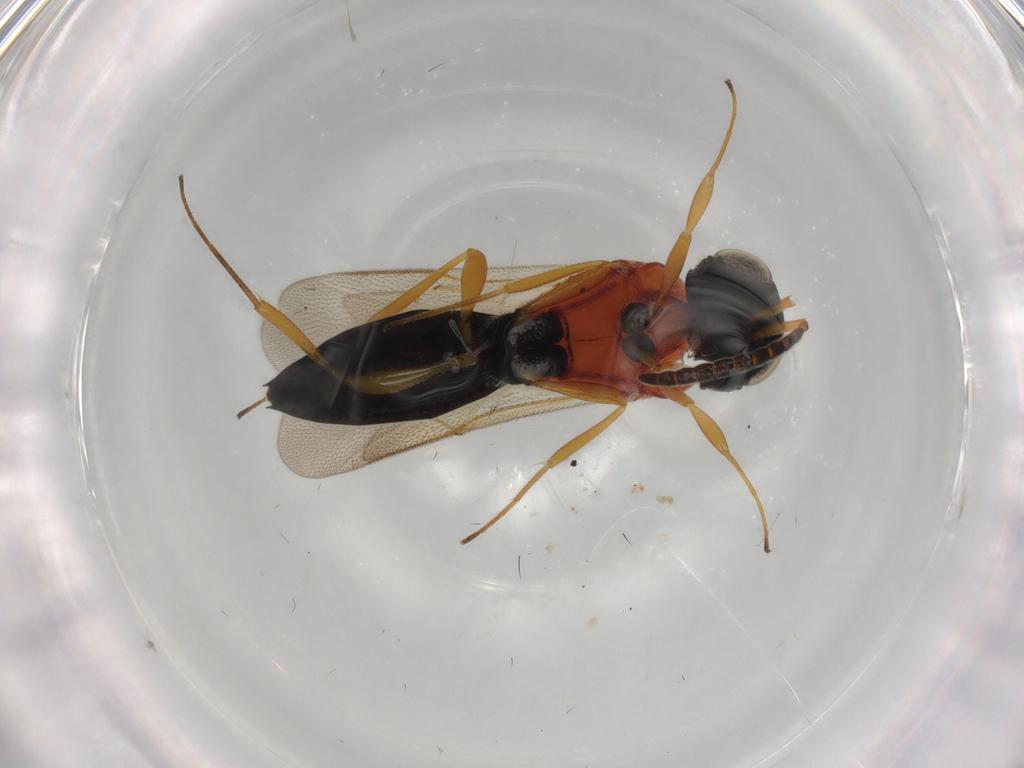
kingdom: Animalia
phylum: Arthropoda
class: Insecta
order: Hymenoptera
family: Scelionidae
